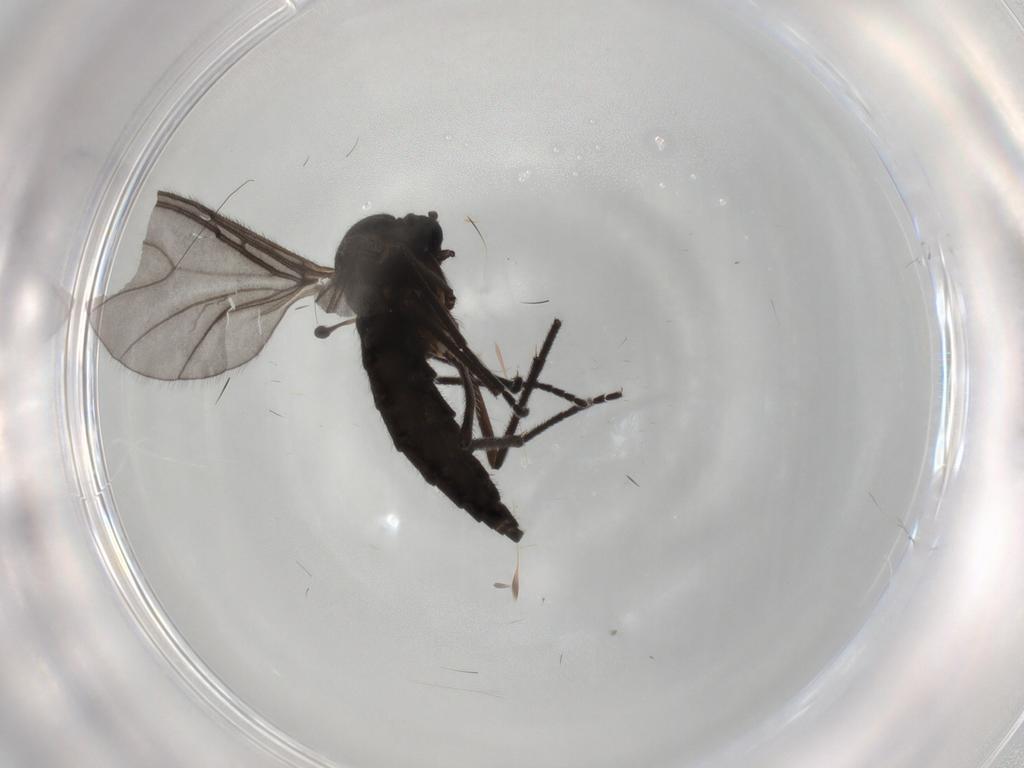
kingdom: Animalia
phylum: Arthropoda
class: Insecta
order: Diptera
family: Sciaridae
